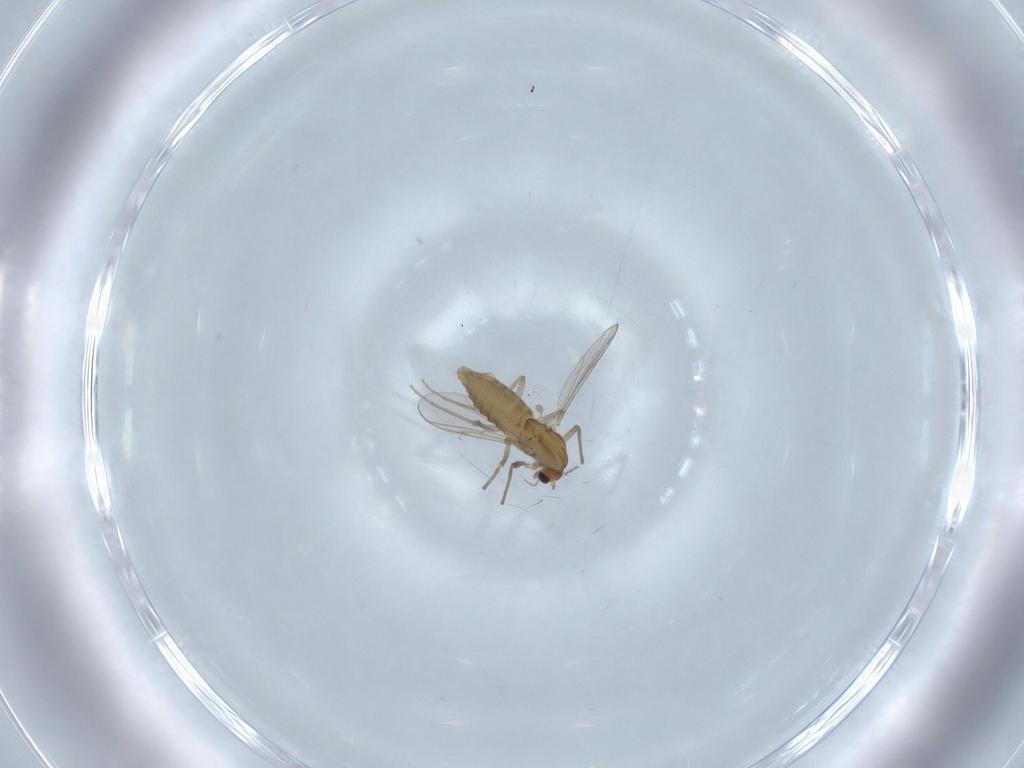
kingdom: Animalia
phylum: Arthropoda
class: Insecta
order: Diptera
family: Chironomidae
